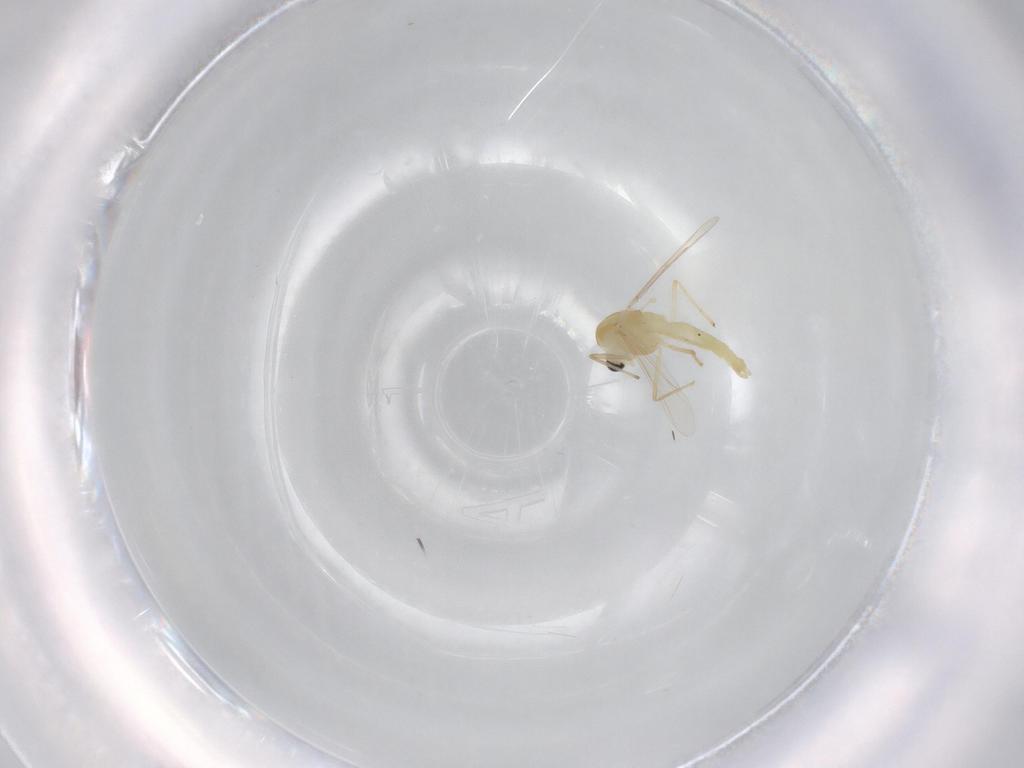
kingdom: Animalia
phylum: Arthropoda
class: Insecta
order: Diptera
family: Chironomidae
